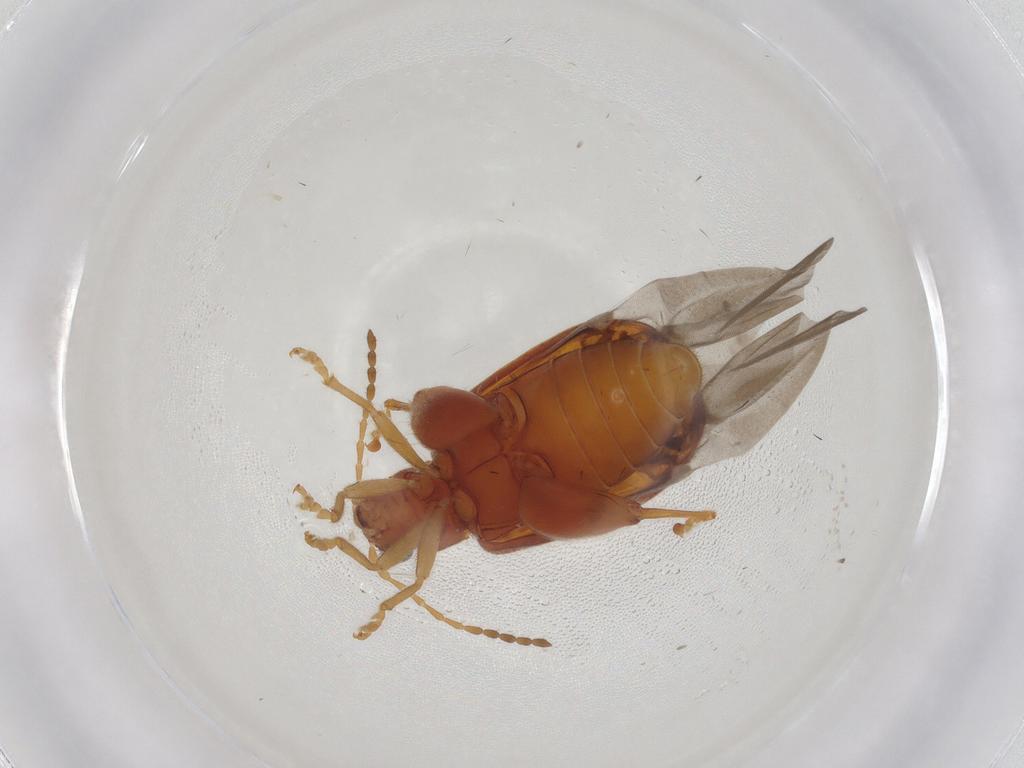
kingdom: Animalia
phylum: Arthropoda
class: Insecta
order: Coleoptera
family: Chrysomelidae
